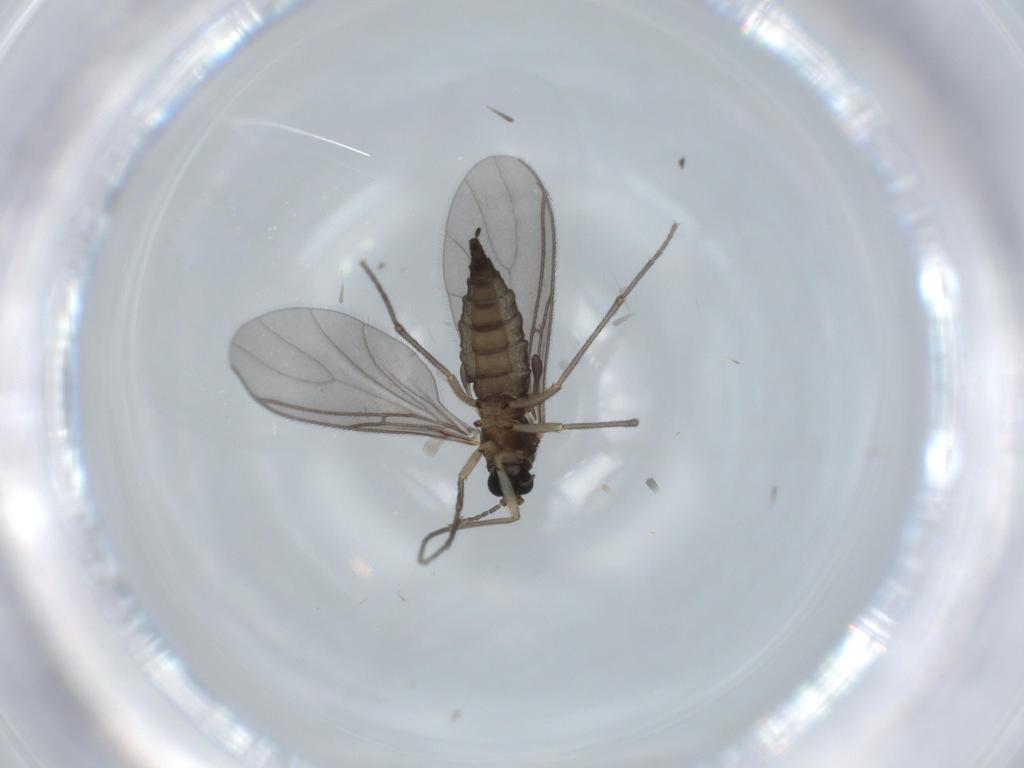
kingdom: Animalia
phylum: Arthropoda
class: Insecta
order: Diptera
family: Sciaridae
